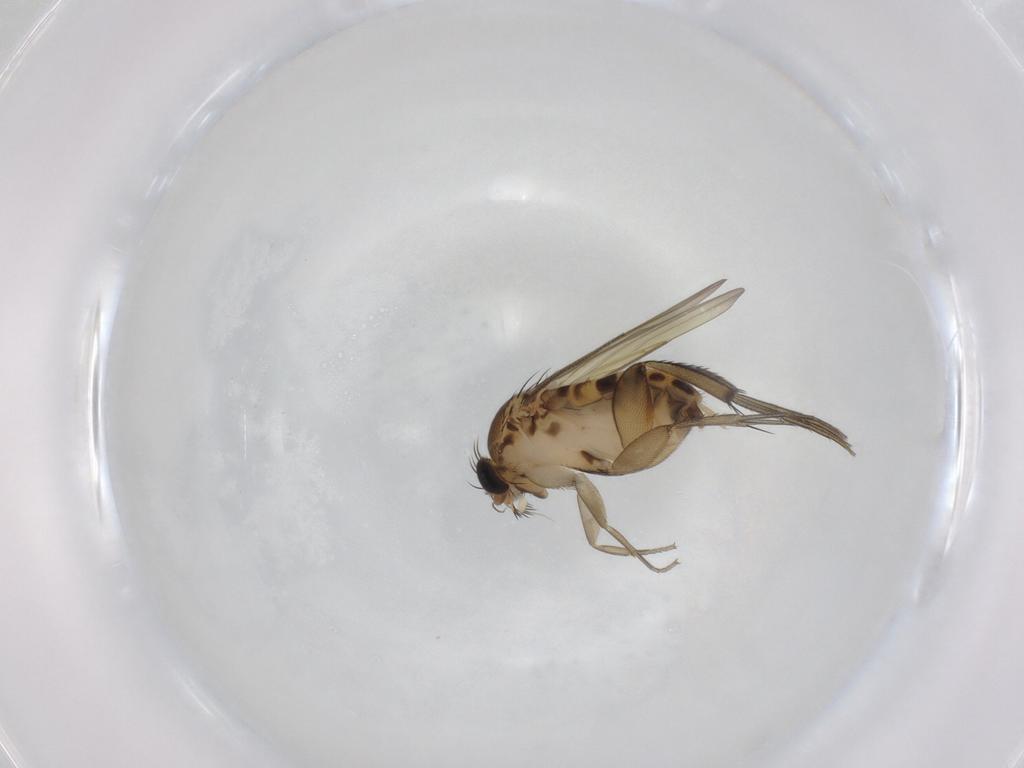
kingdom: Animalia
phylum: Arthropoda
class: Insecta
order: Diptera
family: Phoridae
